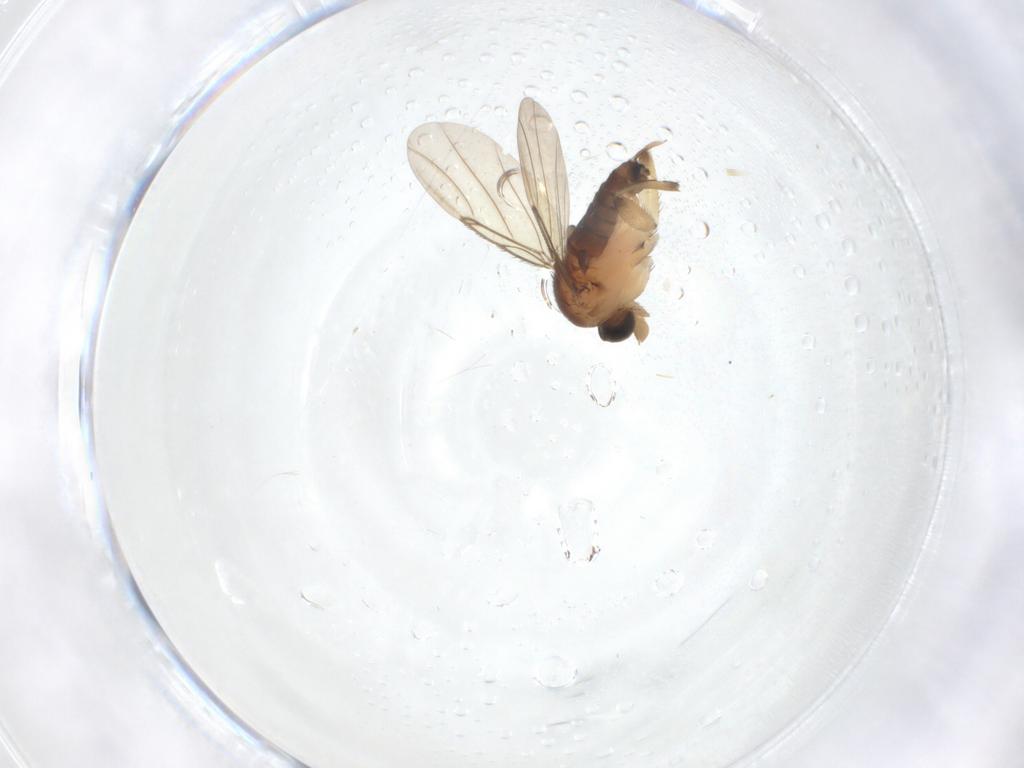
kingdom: Animalia
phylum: Arthropoda
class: Insecta
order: Diptera
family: Phoridae
